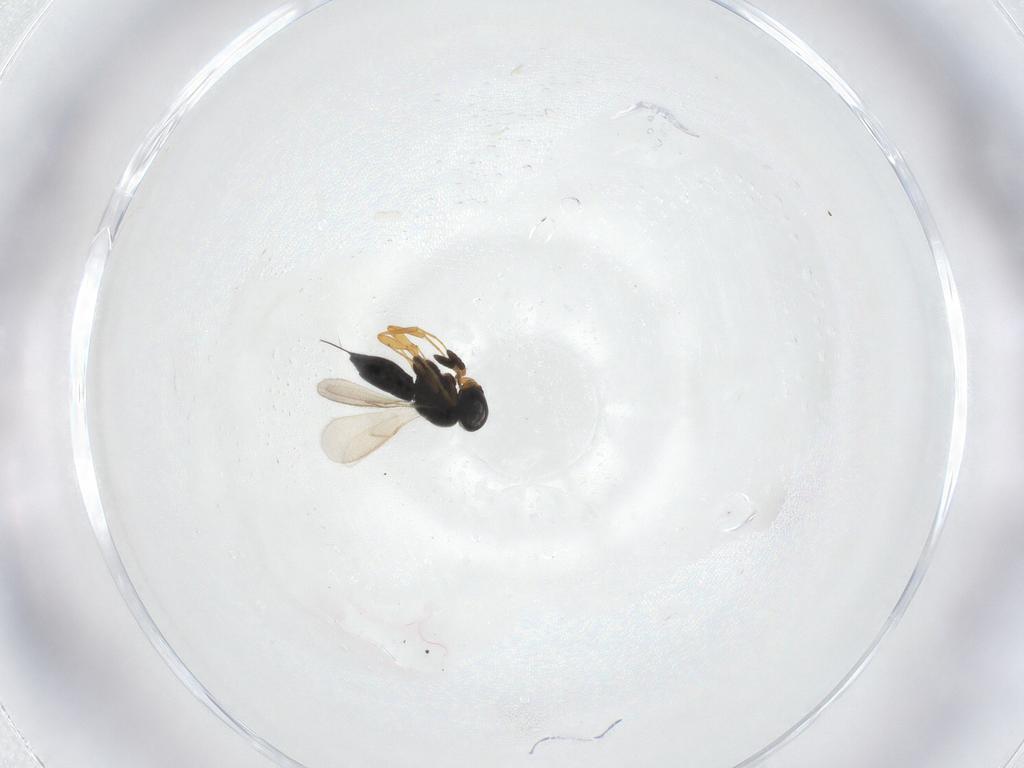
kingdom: Animalia
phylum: Arthropoda
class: Insecta
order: Hymenoptera
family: Scelionidae
